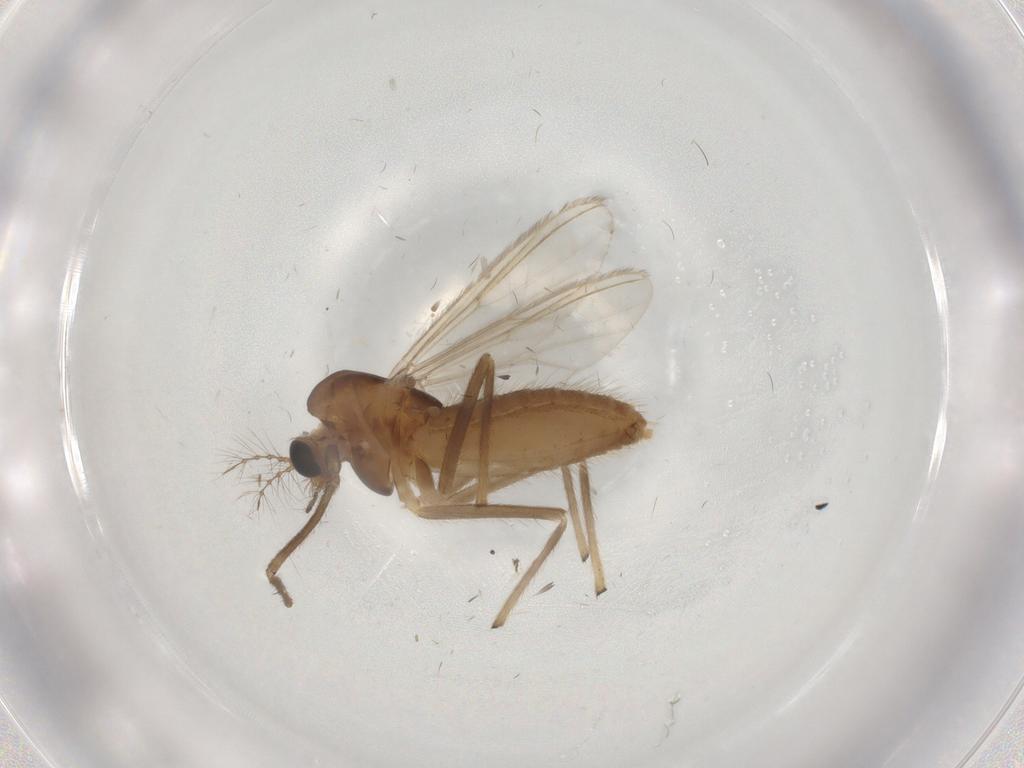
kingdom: Animalia
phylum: Arthropoda
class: Insecta
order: Diptera
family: Chironomidae
